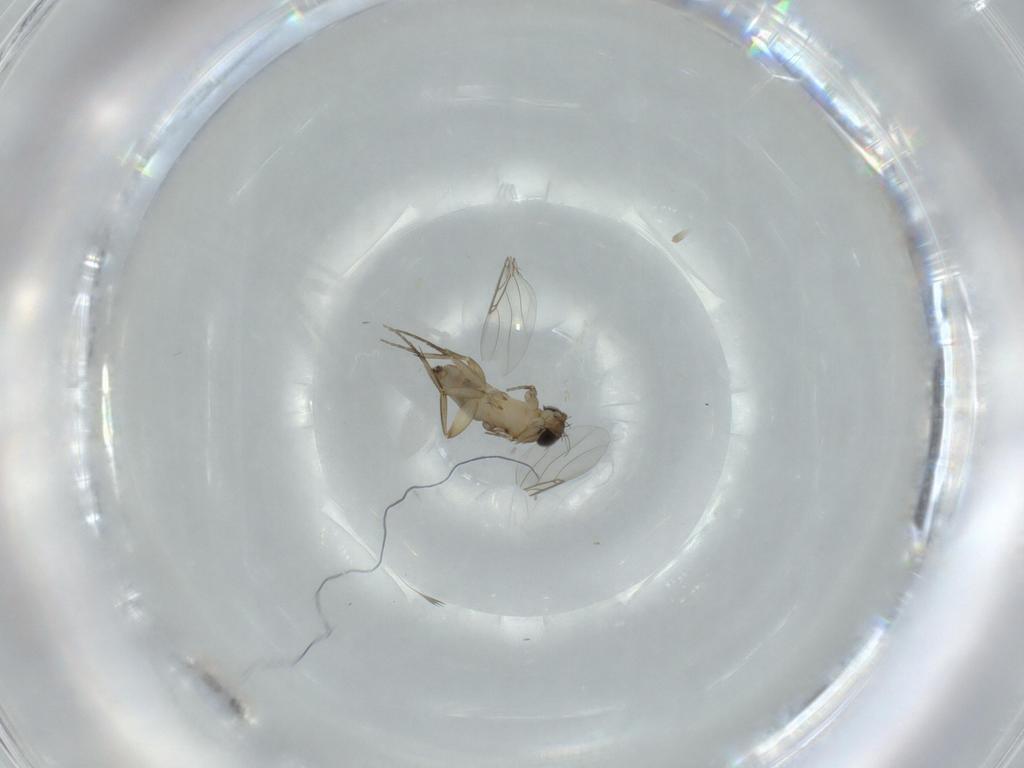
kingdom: Animalia
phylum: Arthropoda
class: Insecta
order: Diptera
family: Phoridae
